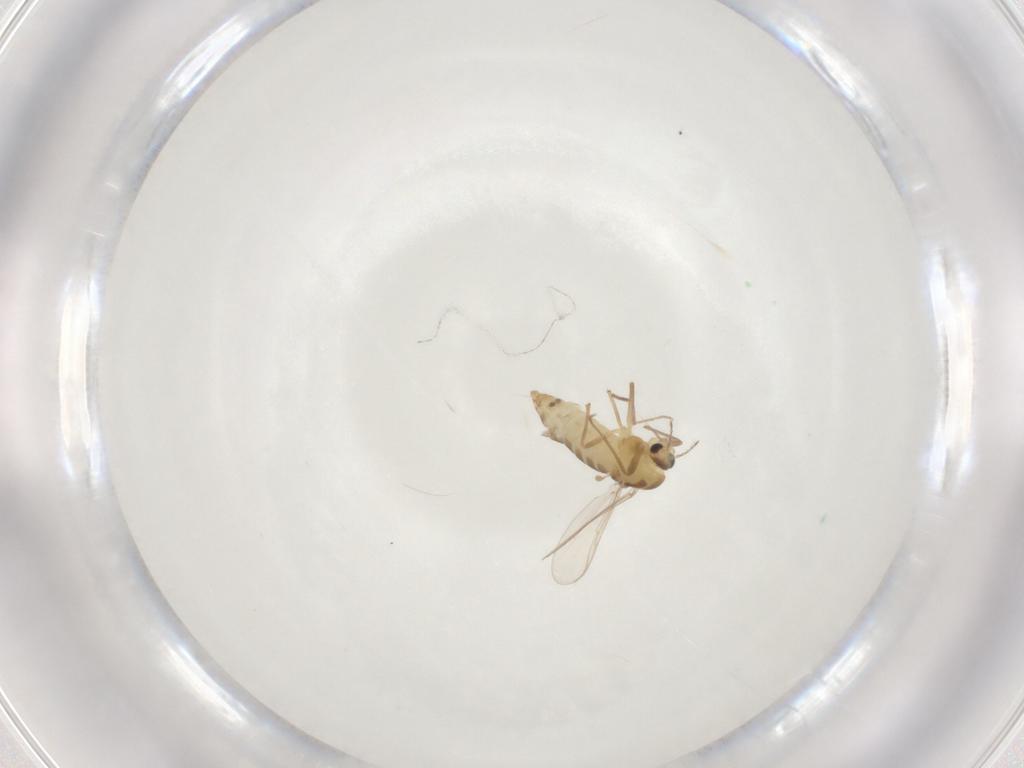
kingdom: Animalia
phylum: Arthropoda
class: Insecta
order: Diptera
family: Chironomidae
